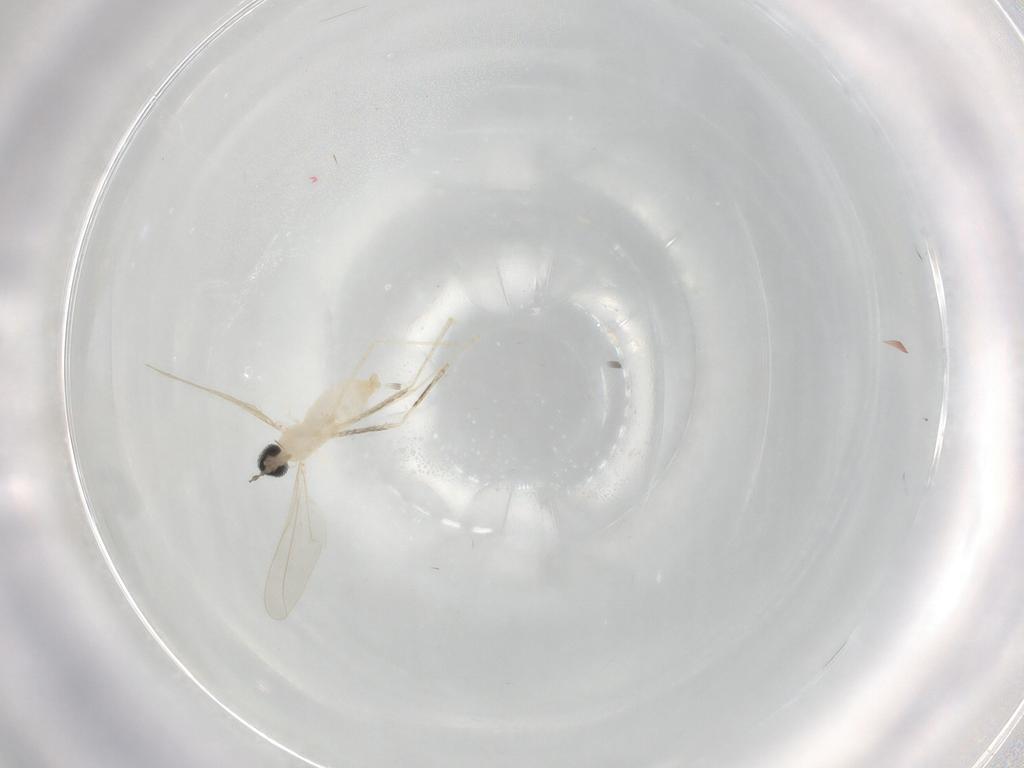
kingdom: Animalia
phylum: Arthropoda
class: Insecta
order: Diptera
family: Cecidomyiidae
